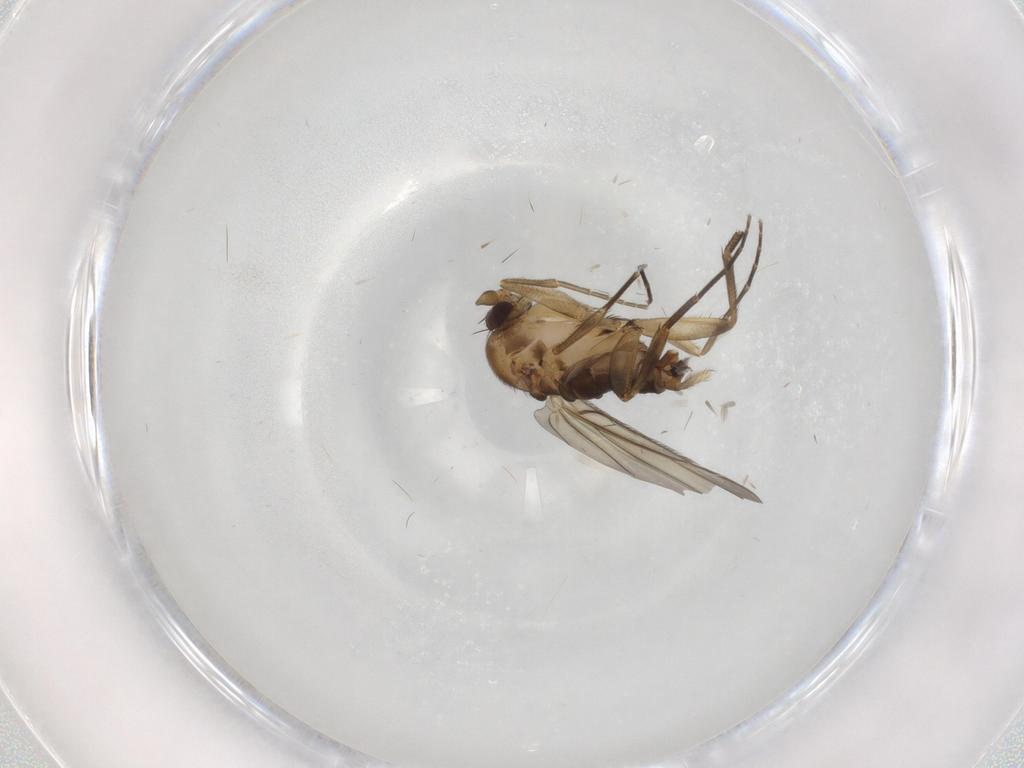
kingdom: Animalia
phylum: Arthropoda
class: Insecta
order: Diptera
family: Phoridae
